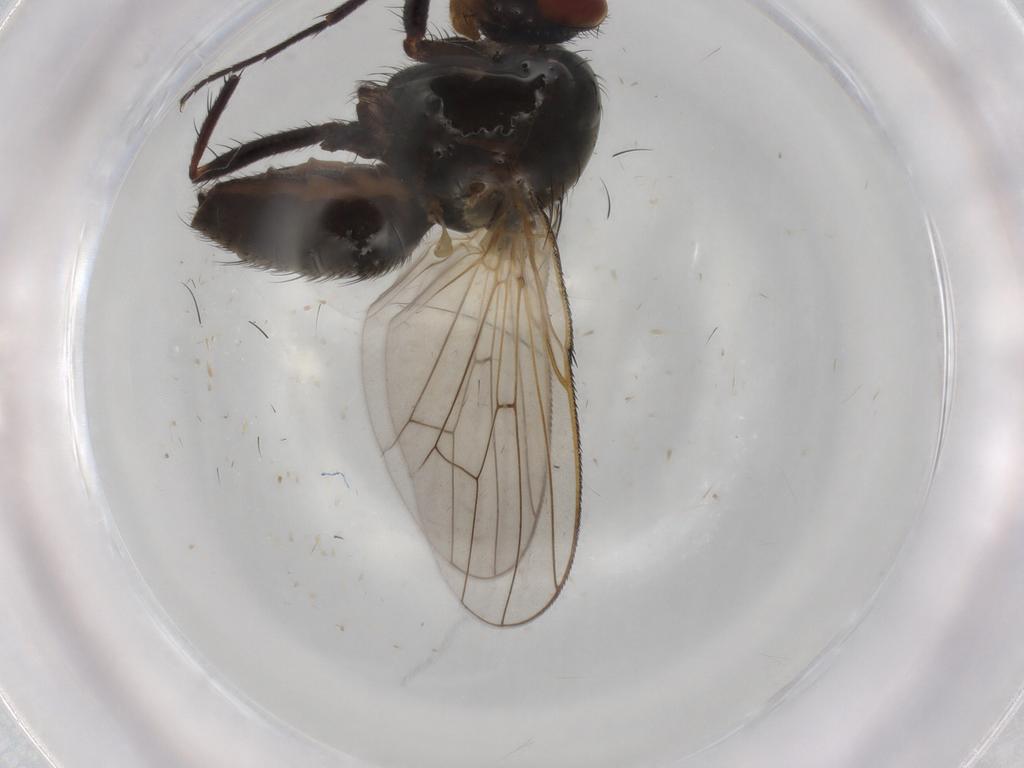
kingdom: Animalia
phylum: Arthropoda
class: Insecta
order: Diptera
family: Anthomyiidae
